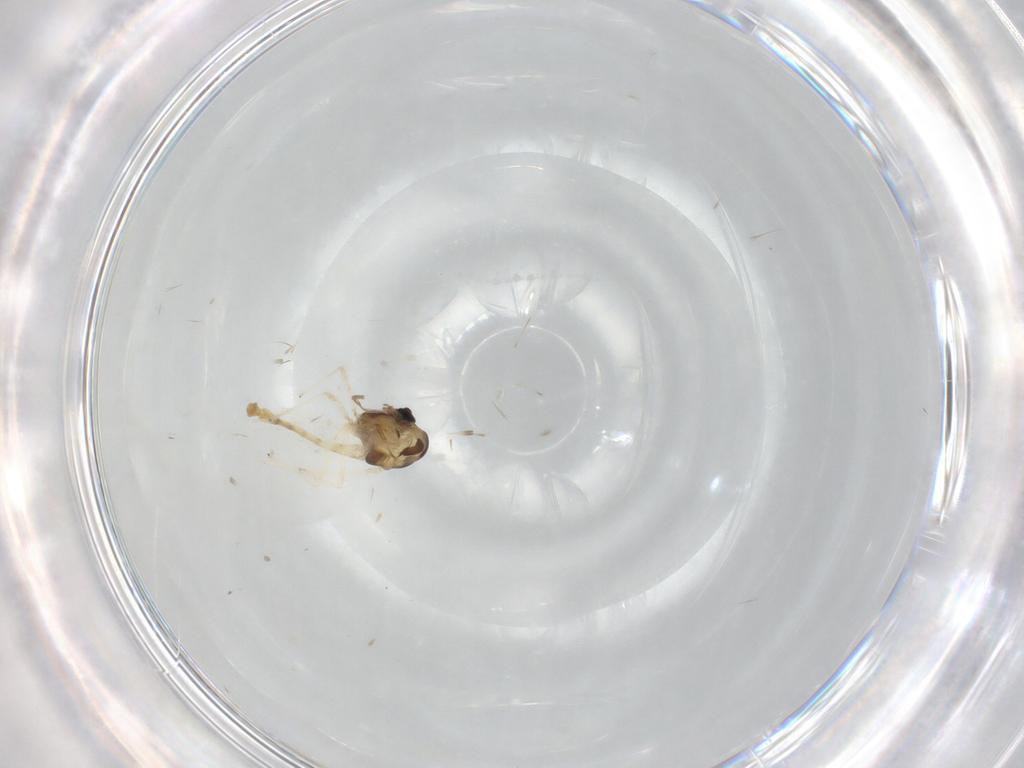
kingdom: Animalia
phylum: Arthropoda
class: Insecta
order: Diptera
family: Chironomidae
